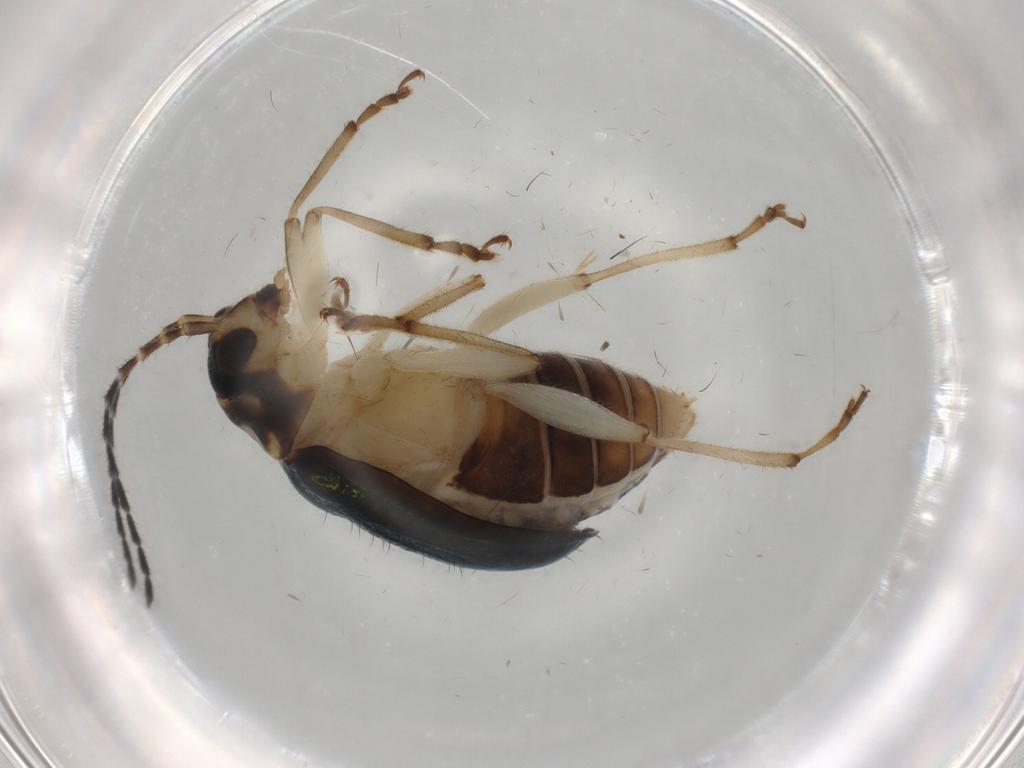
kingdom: Animalia
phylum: Arthropoda
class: Insecta
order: Coleoptera
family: Chrysomelidae
